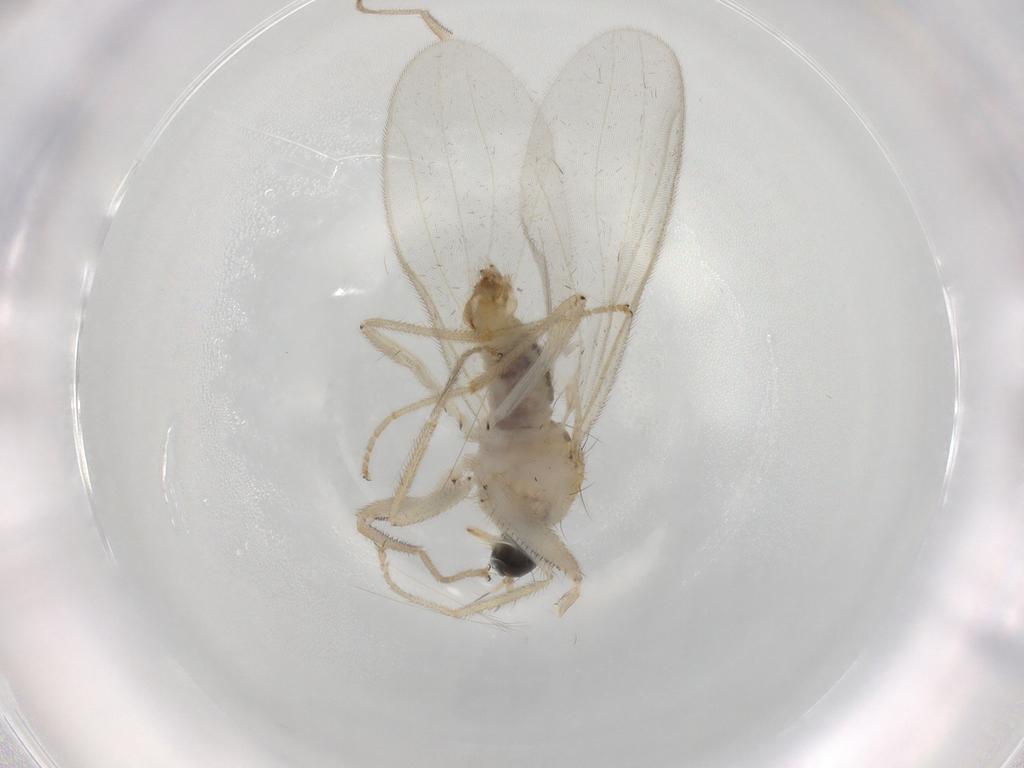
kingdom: Animalia
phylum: Arthropoda
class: Insecta
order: Diptera
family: Hybotidae
